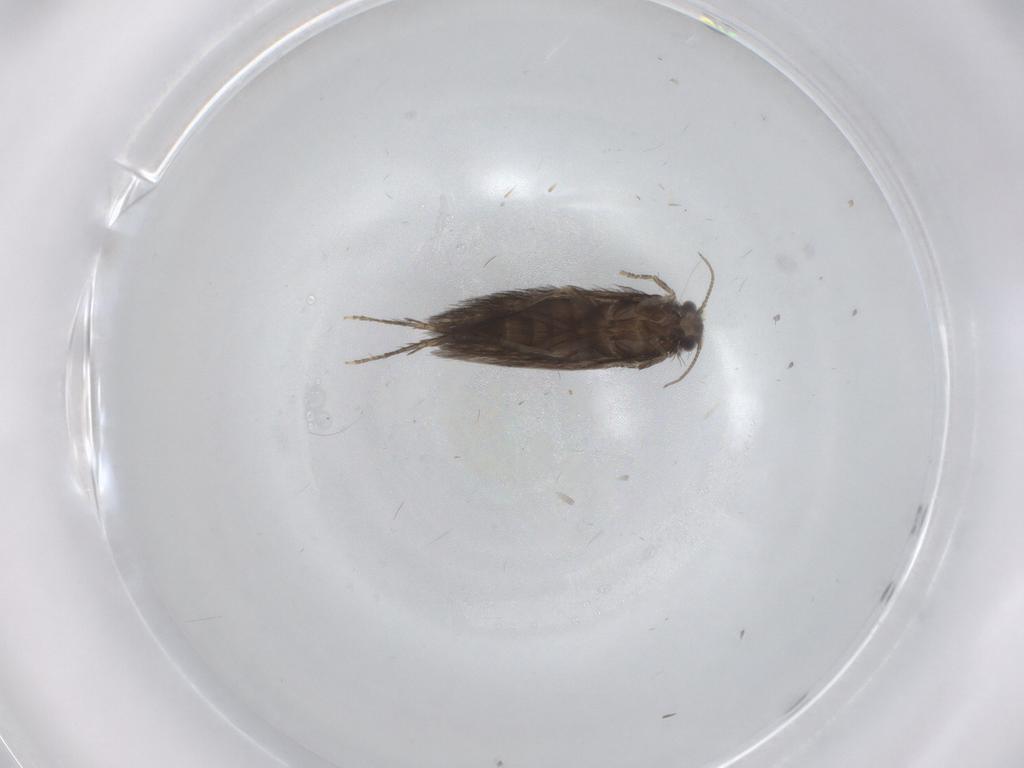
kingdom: Animalia
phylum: Arthropoda
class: Insecta
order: Trichoptera
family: Hydroptilidae
